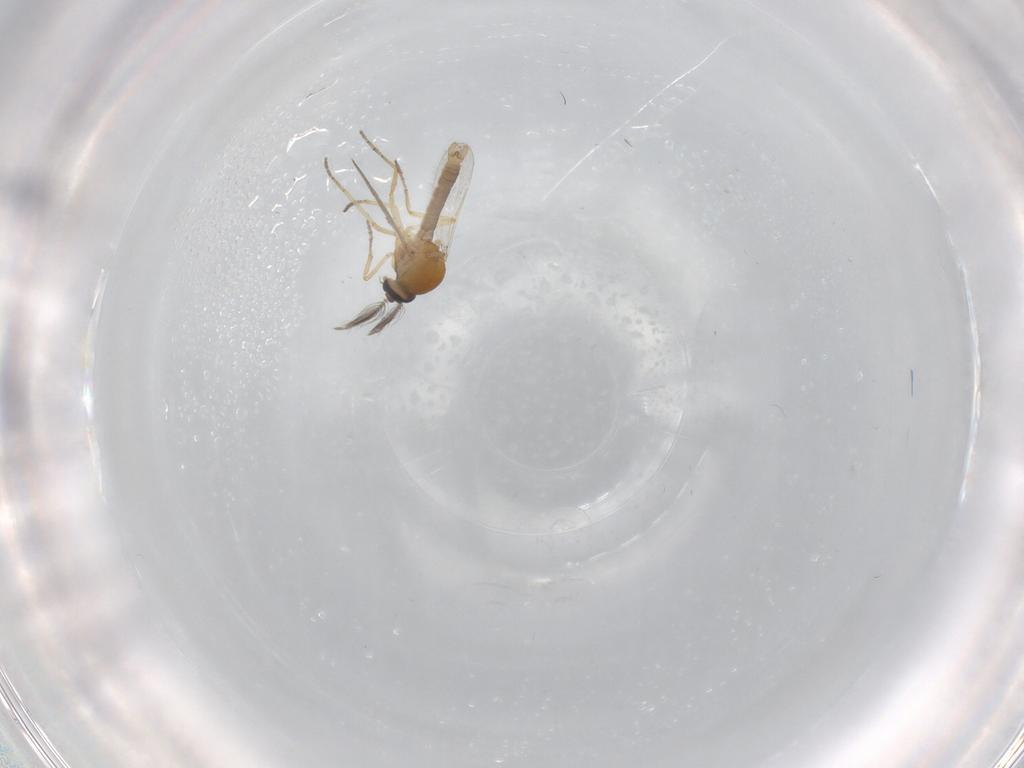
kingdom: Animalia
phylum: Arthropoda
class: Insecta
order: Diptera
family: Ceratopogonidae
